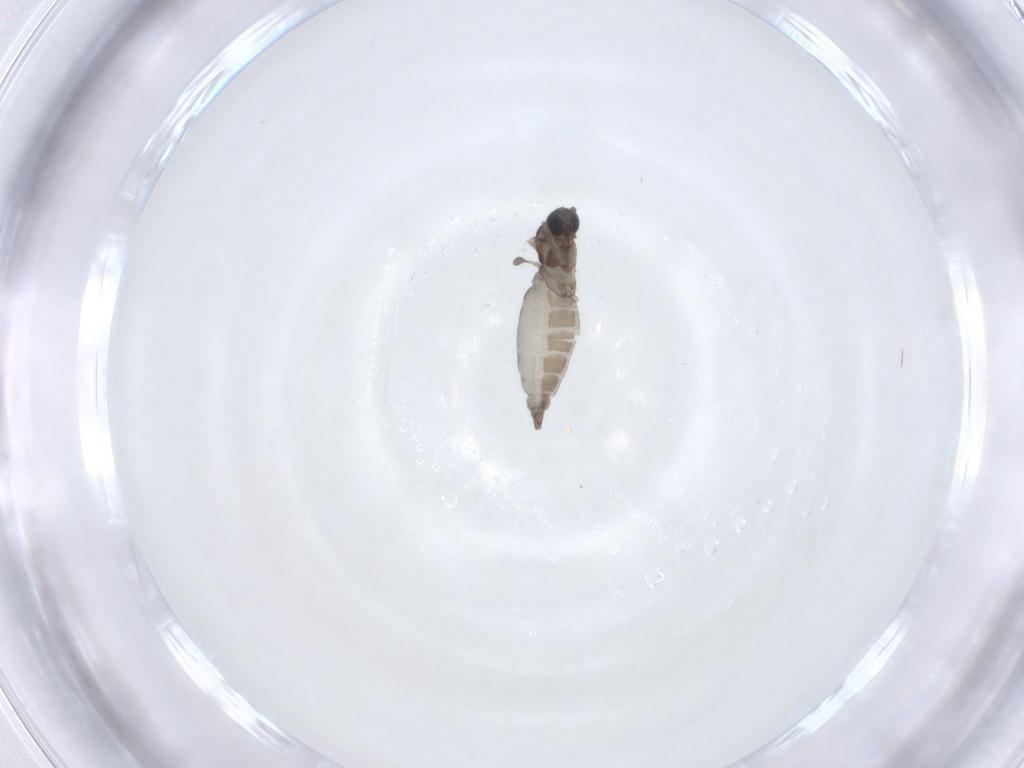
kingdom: Animalia
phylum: Arthropoda
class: Insecta
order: Diptera
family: Sciaridae
